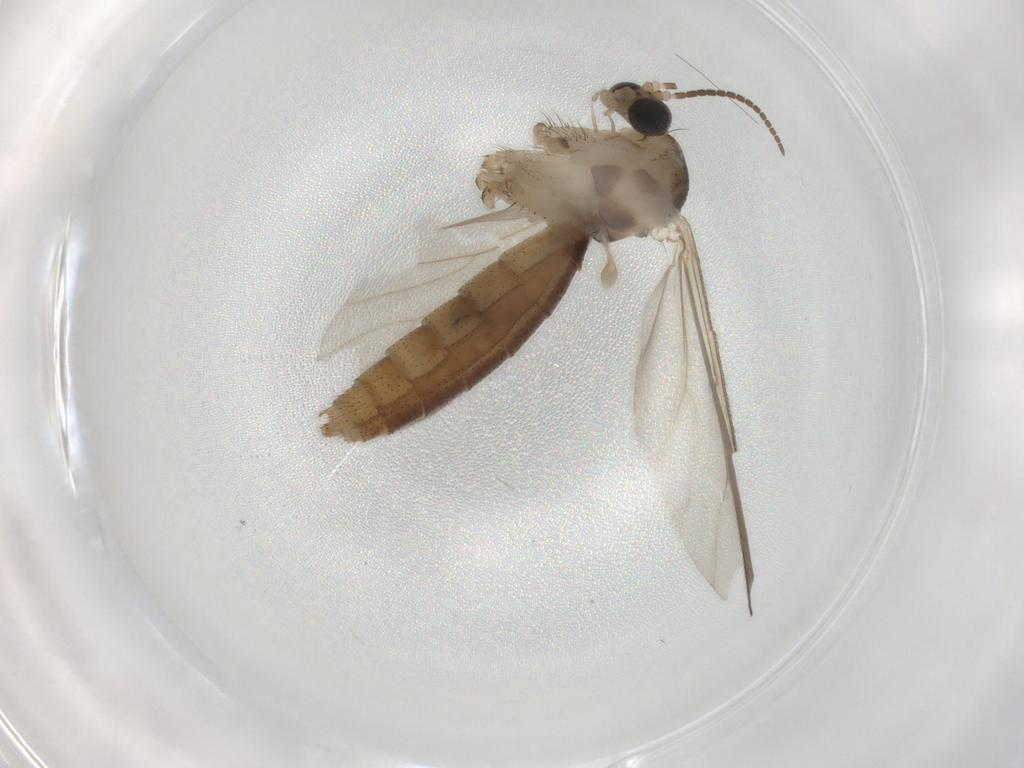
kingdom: Animalia
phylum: Arthropoda
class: Insecta
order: Diptera
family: Mycetophilidae
